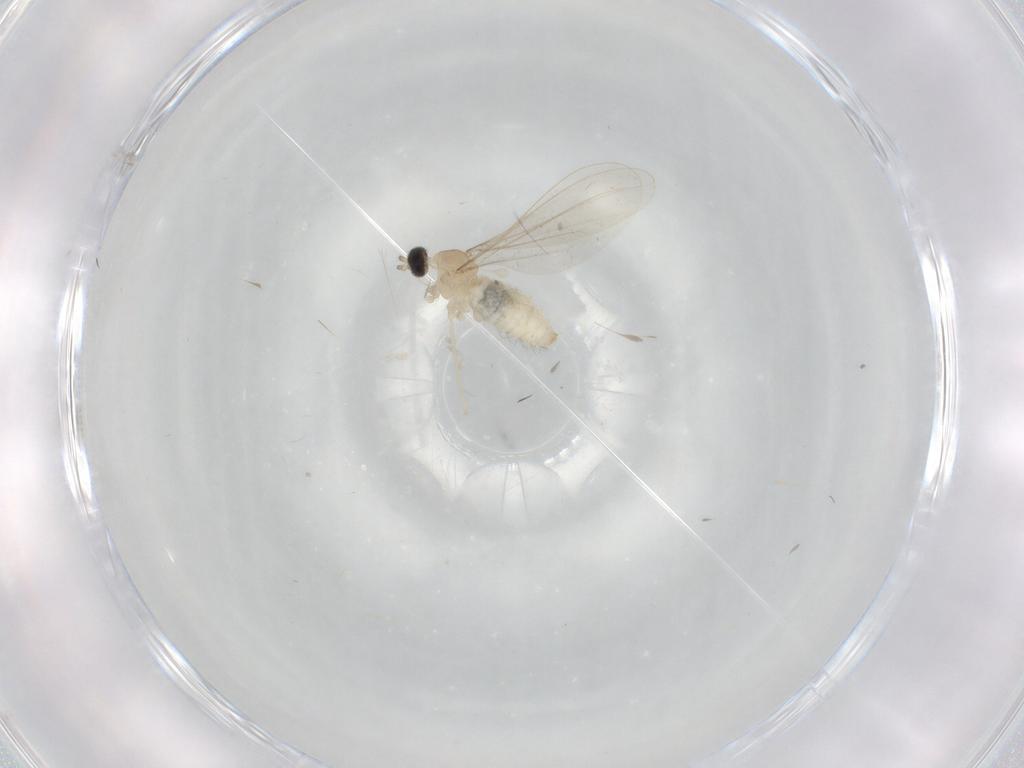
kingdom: Animalia
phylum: Arthropoda
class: Insecta
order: Diptera
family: Cecidomyiidae
